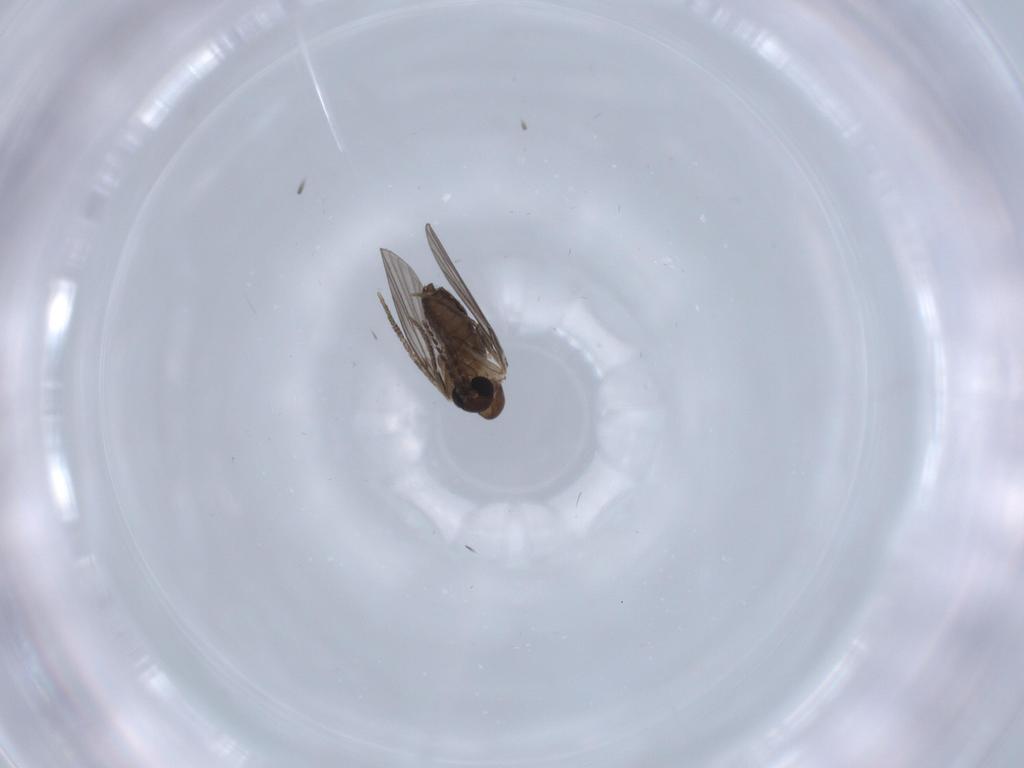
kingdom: Animalia
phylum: Arthropoda
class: Insecta
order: Diptera
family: Psychodidae
